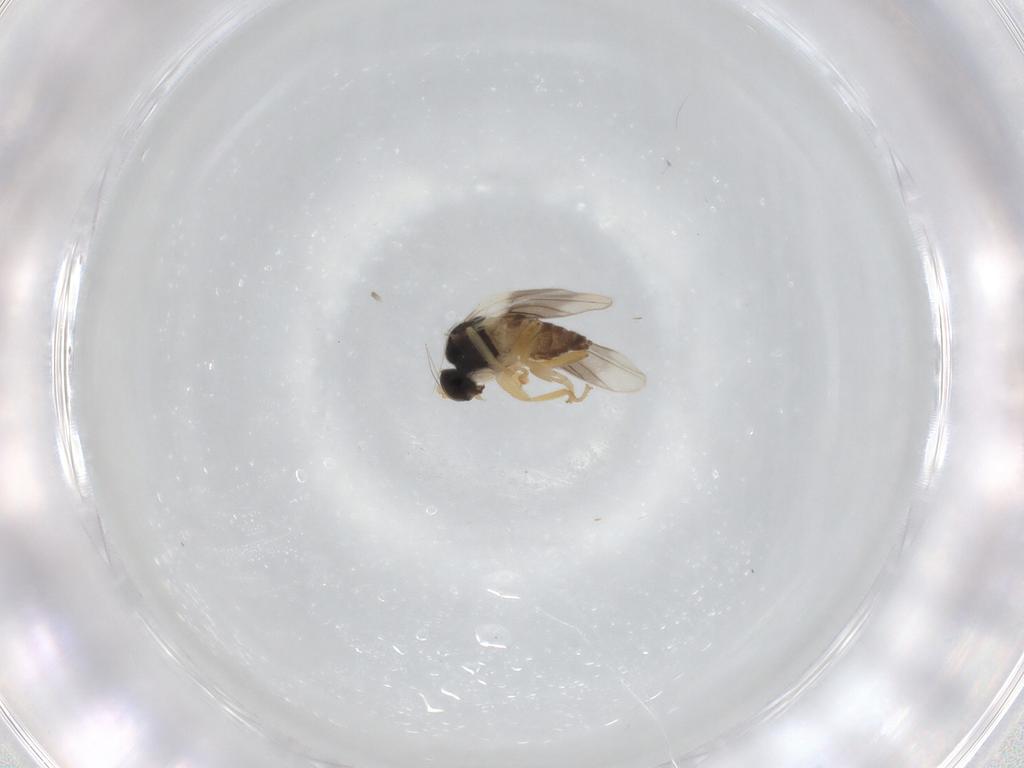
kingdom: Animalia
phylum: Arthropoda
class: Insecta
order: Diptera
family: Hybotidae
